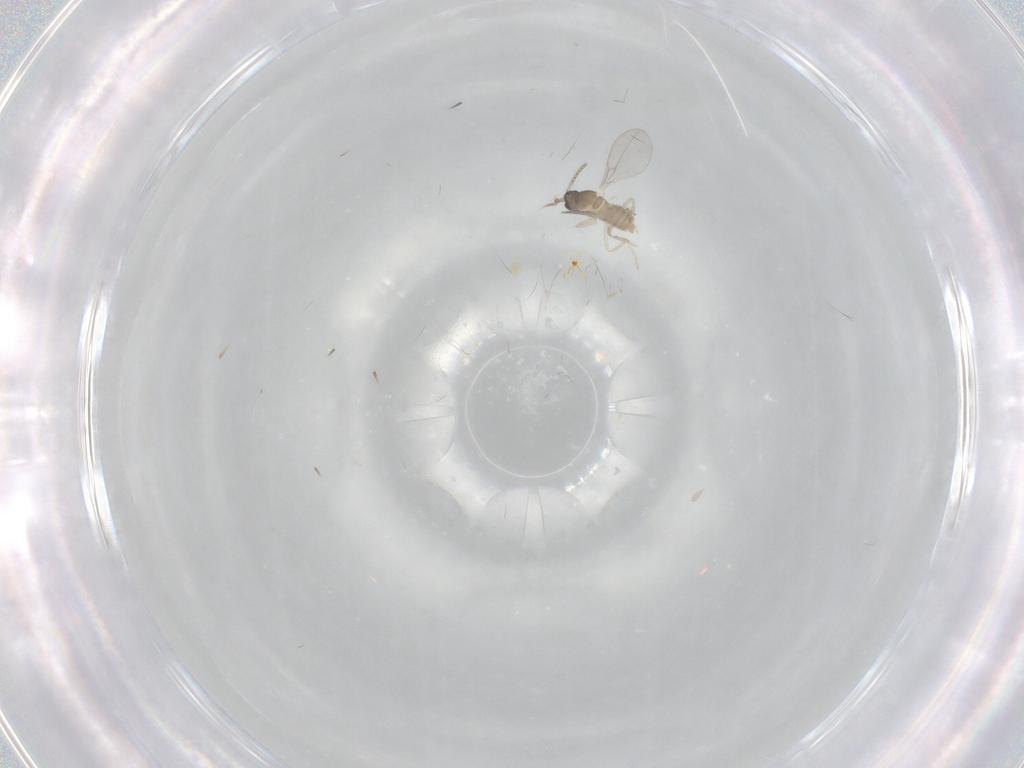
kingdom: Animalia
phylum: Arthropoda
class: Insecta
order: Diptera
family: Cecidomyiidae
